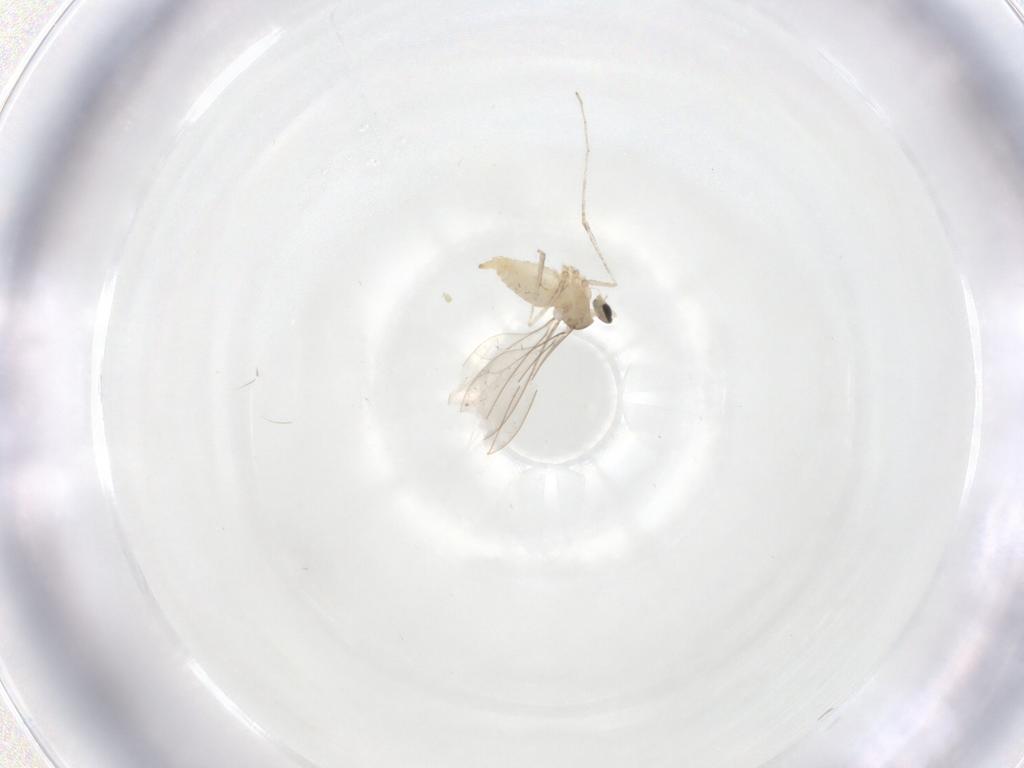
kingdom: Animalia
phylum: Arthropoda
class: Insecta
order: Diptera
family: Cecidomyiidae
